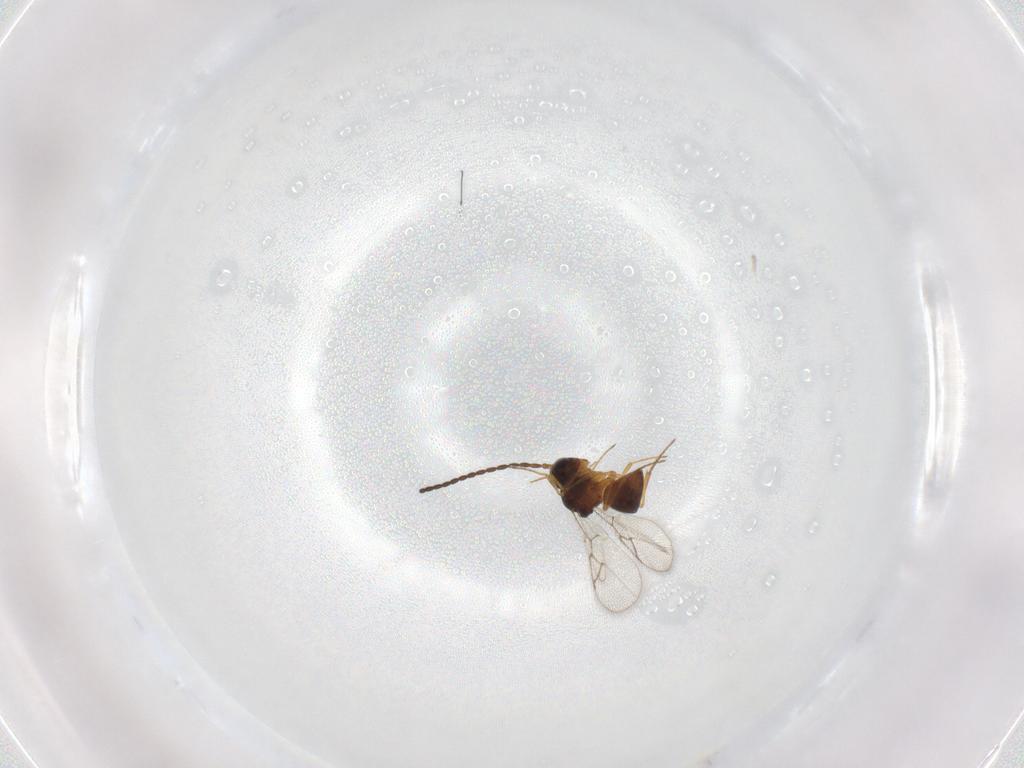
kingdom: Animalia
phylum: Arthropoda
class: Insecta
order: Hymenoptera
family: Figitidae
